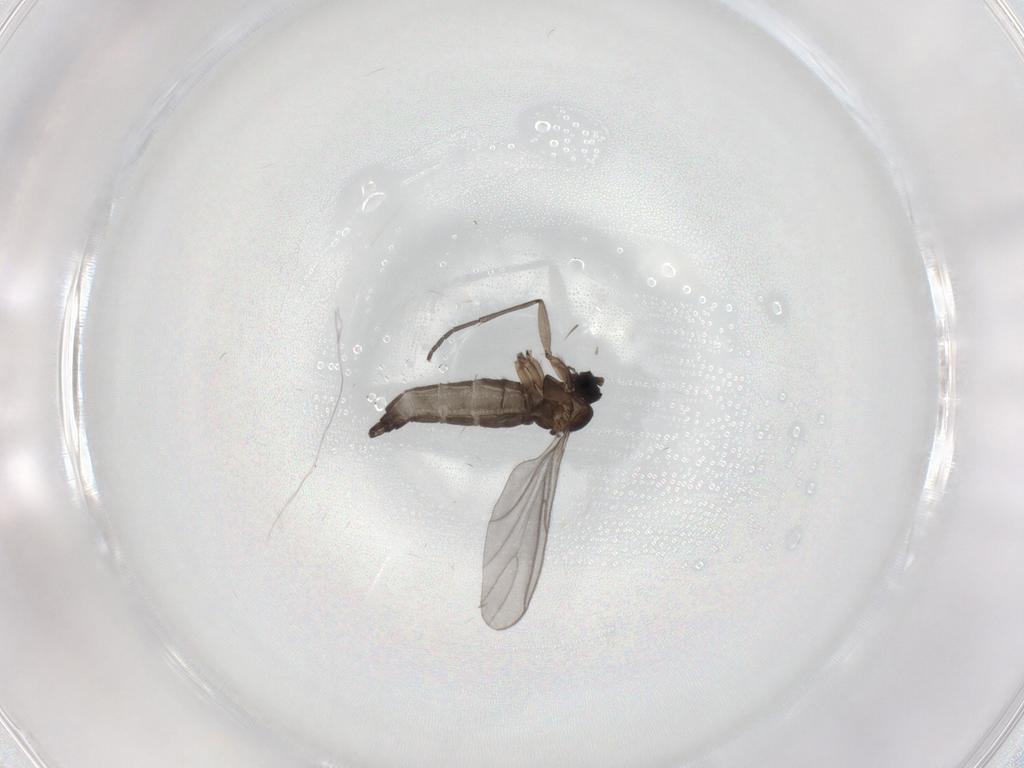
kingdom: Animalia
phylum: Arthropoda
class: Insecta
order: Diptera
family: Sciaridae
